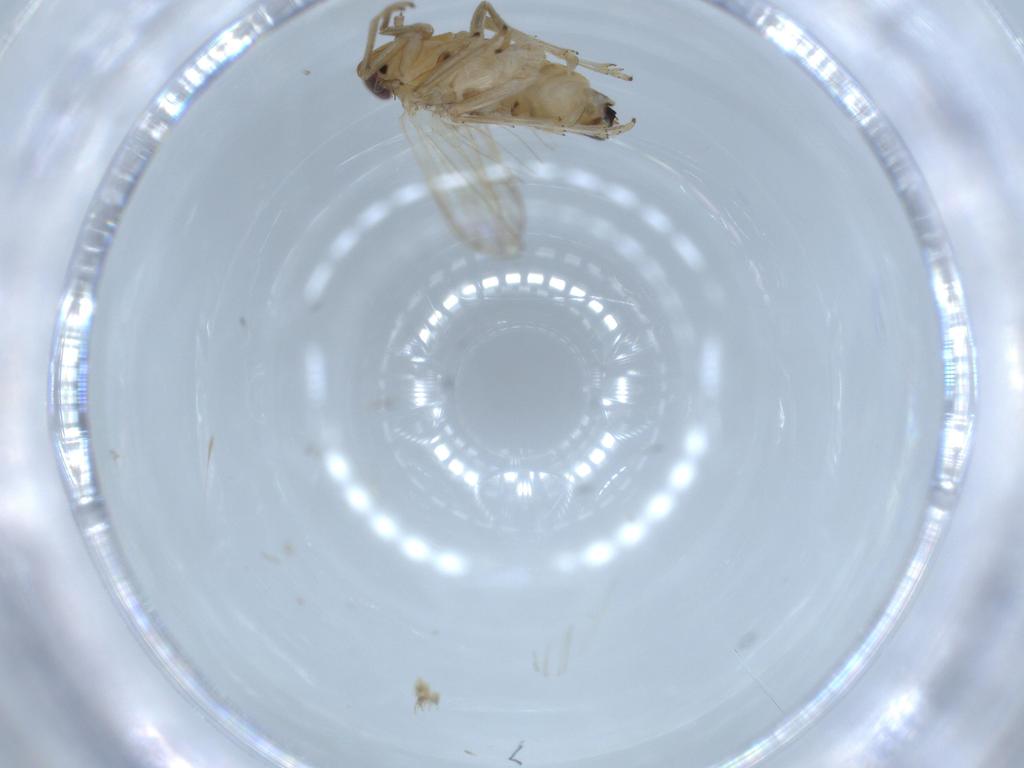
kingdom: Animalia
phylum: Arthropoda
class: Insecta
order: Hemiptera
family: Delphacidae
